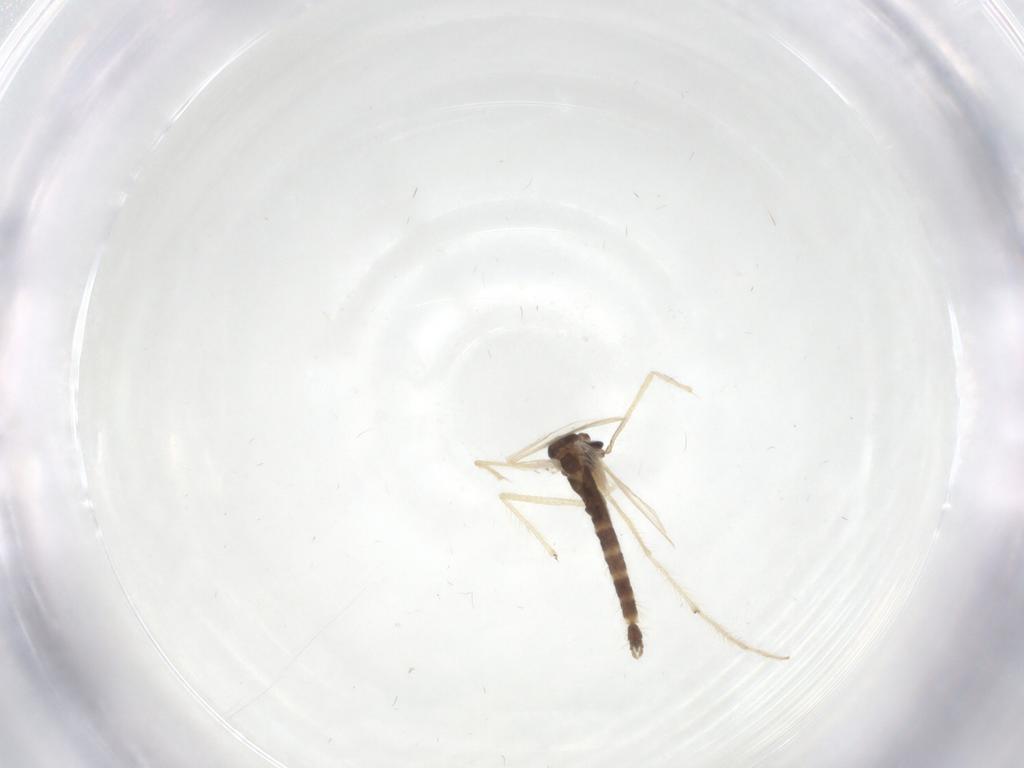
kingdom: Animalia
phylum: Arthropoda
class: Insecta
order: Diptera
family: Chironomidae
